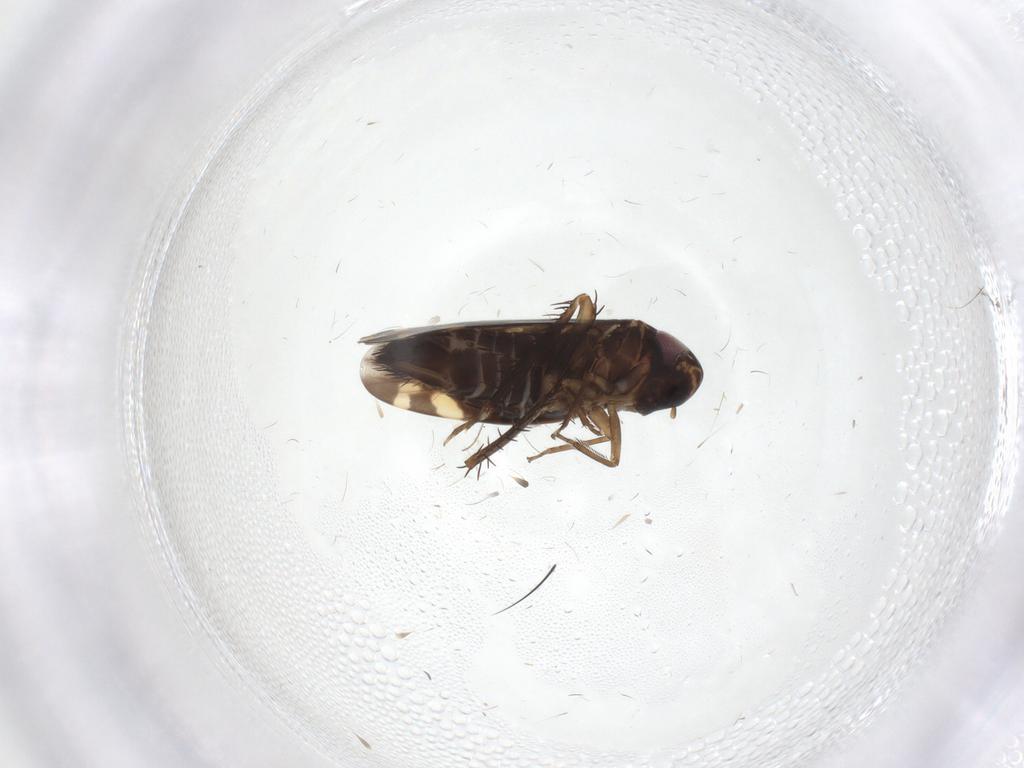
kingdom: Animalia
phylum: Arthropoda
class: Insecta
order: Hemiptera
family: Cicadellidae
